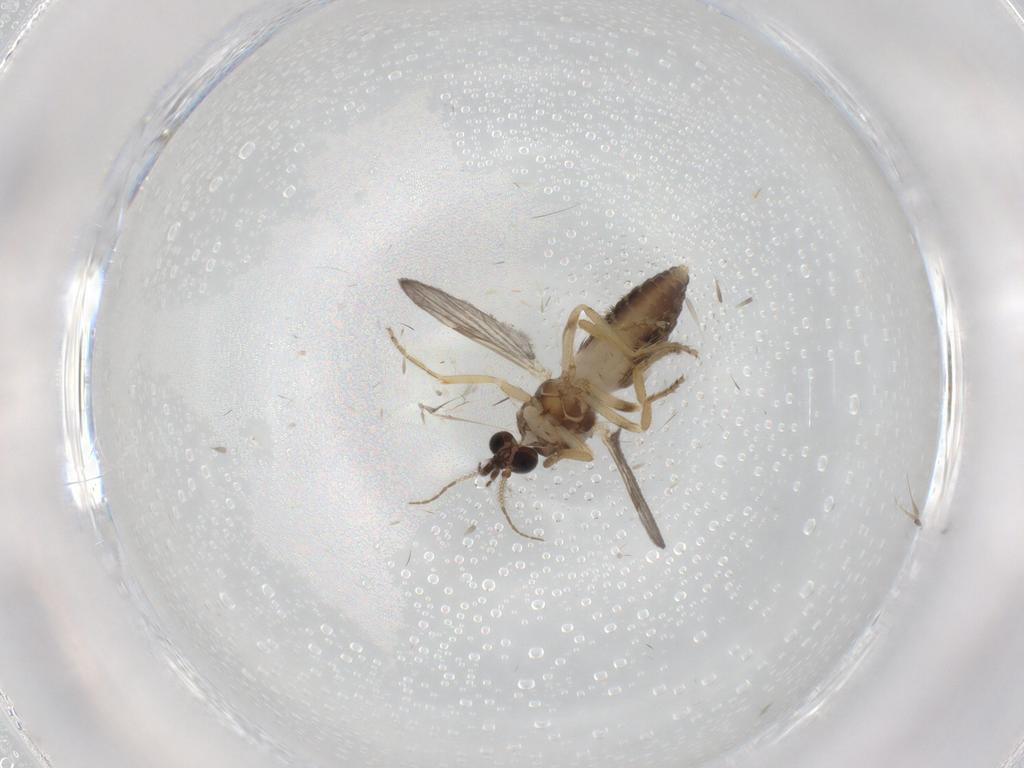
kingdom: Animalia
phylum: Arthropoda
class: Insecta
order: Diptera
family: Ceratopogonidae
